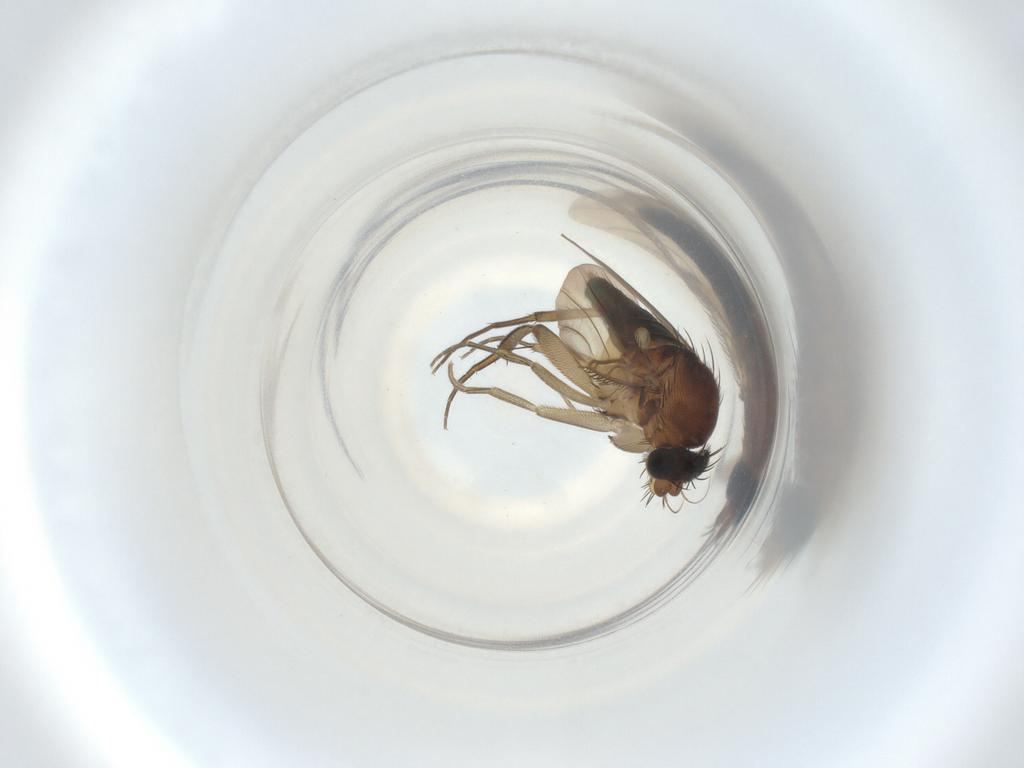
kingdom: Animalia
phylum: Arthropoda
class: Insecta
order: Diptera
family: Phoridae
